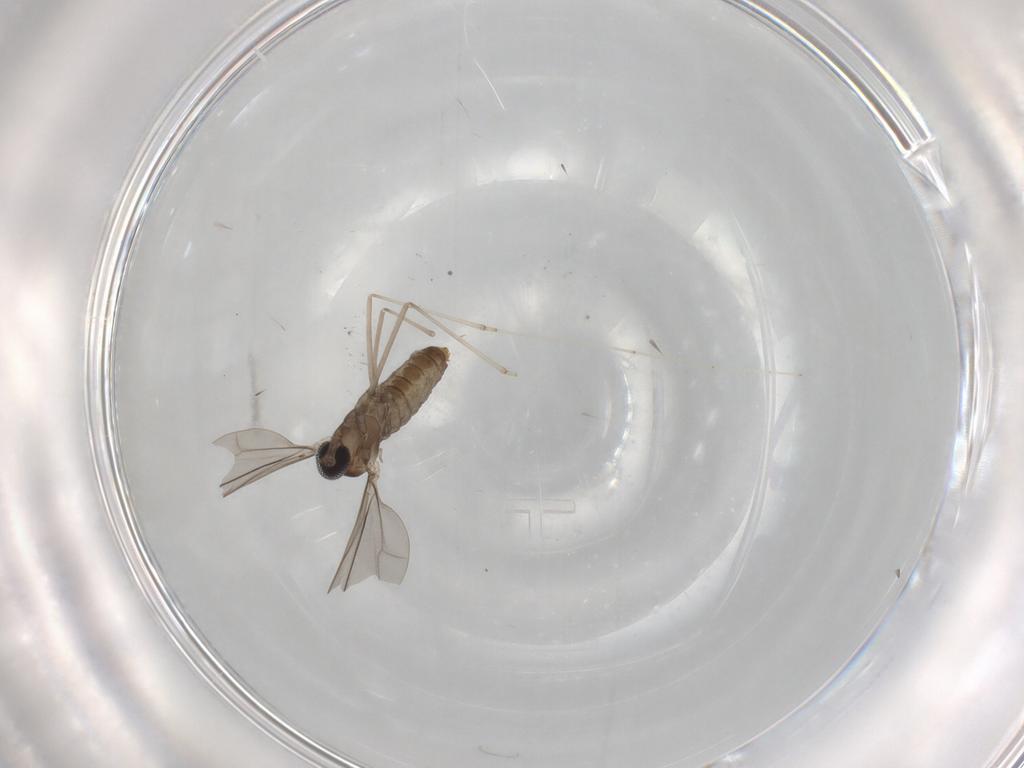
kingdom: Animalia
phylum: Arthropoda
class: Insecta
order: Diptera
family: Cecidomyiidae
